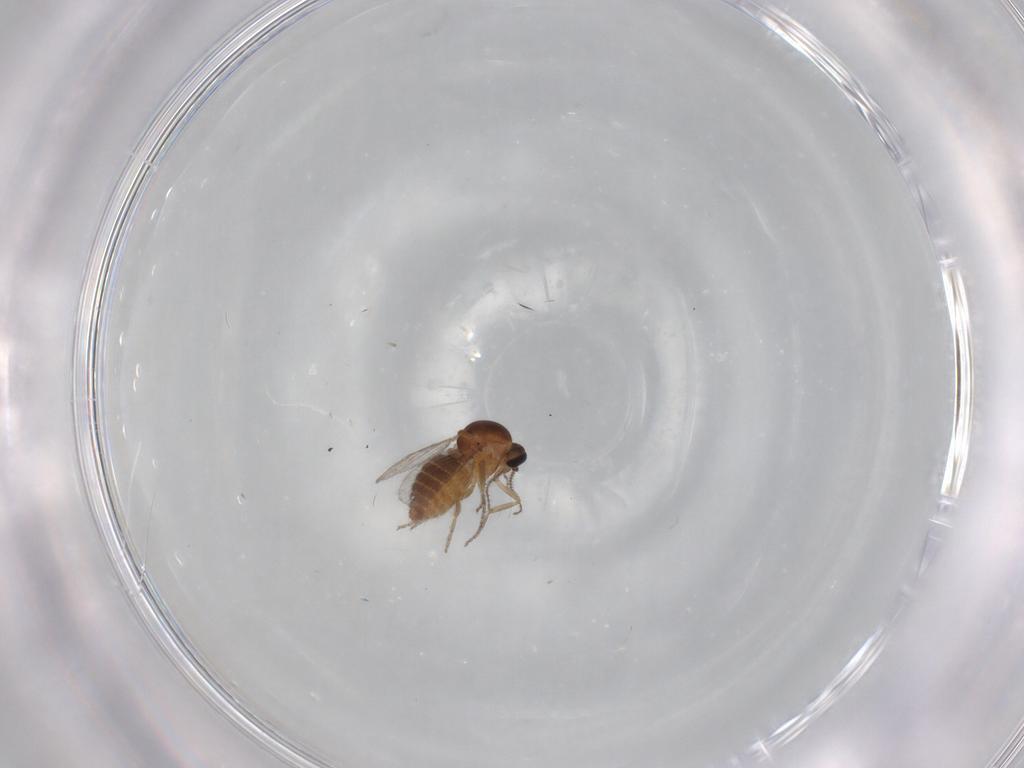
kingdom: Animalia
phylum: Arthropoda
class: Insecta
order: Diptera
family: Ceratopogonidae
